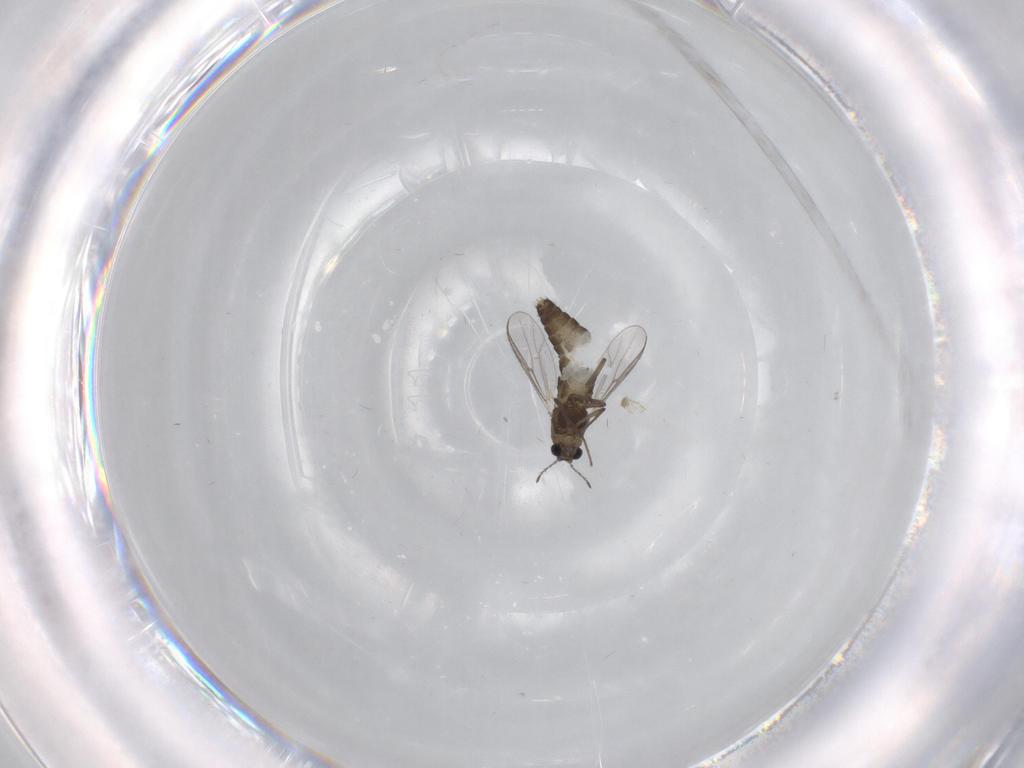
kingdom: Animalia
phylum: Arthropoda
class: Insecta
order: Diptera
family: Chironomidae
